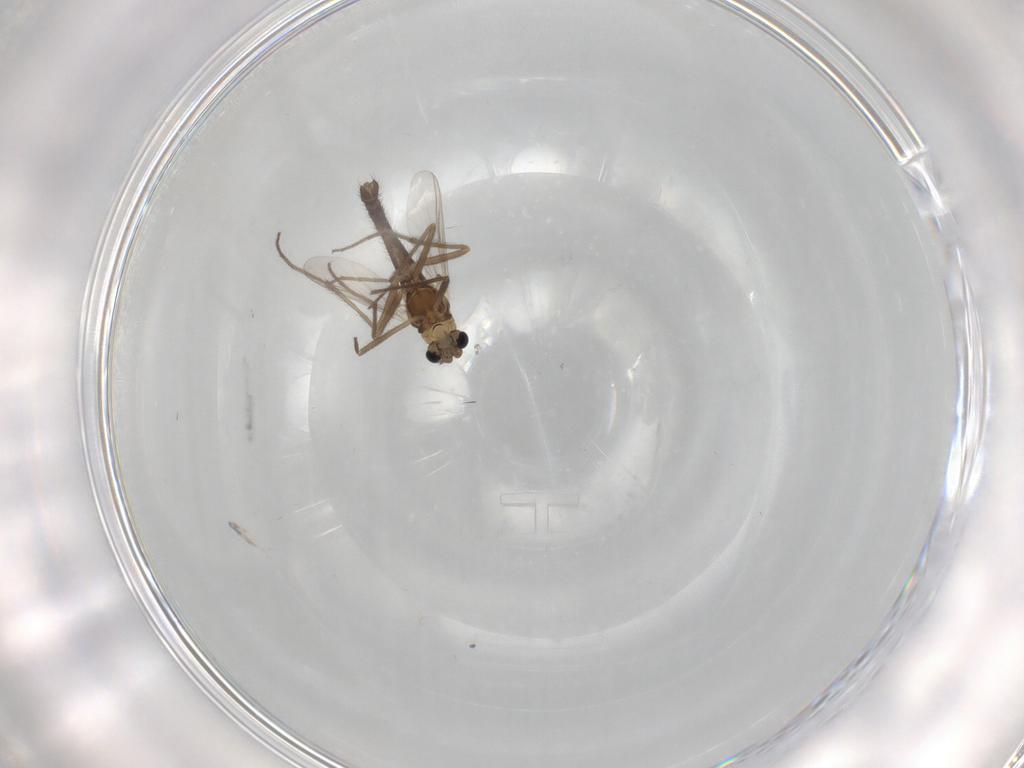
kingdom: Animalia
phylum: Arthropoda
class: Insecta
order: Diptera
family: Chironomidae
